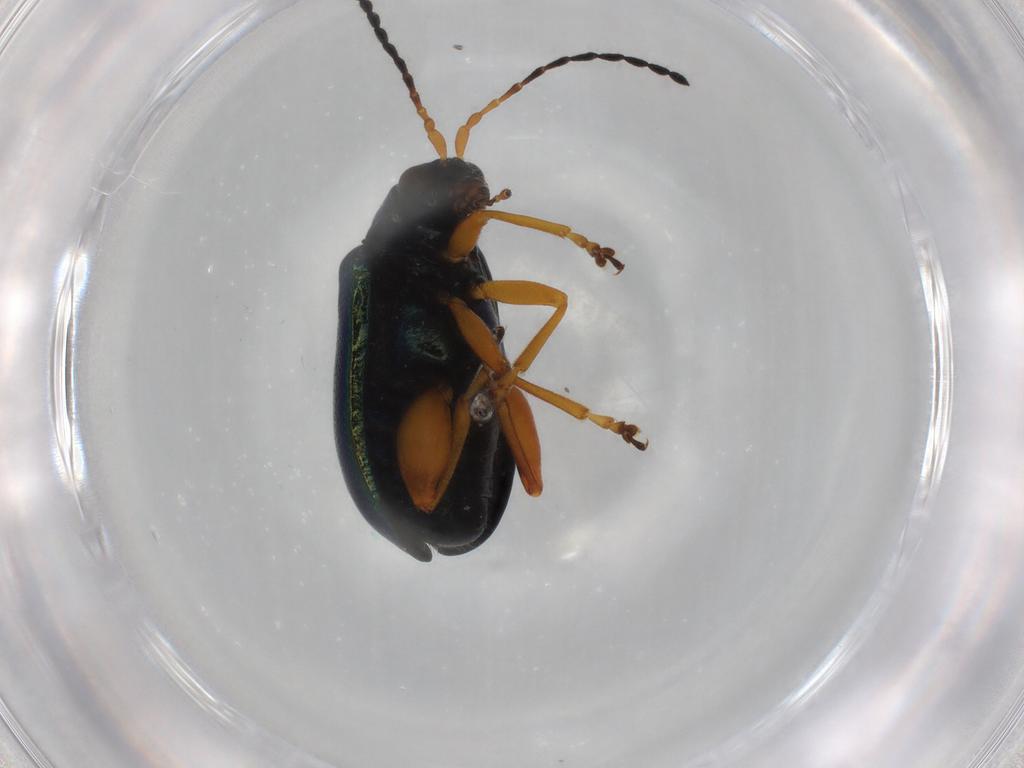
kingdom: Animalia
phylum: Arthropoda
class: Insecta
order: Coleoptera
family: Chrysomelidae
